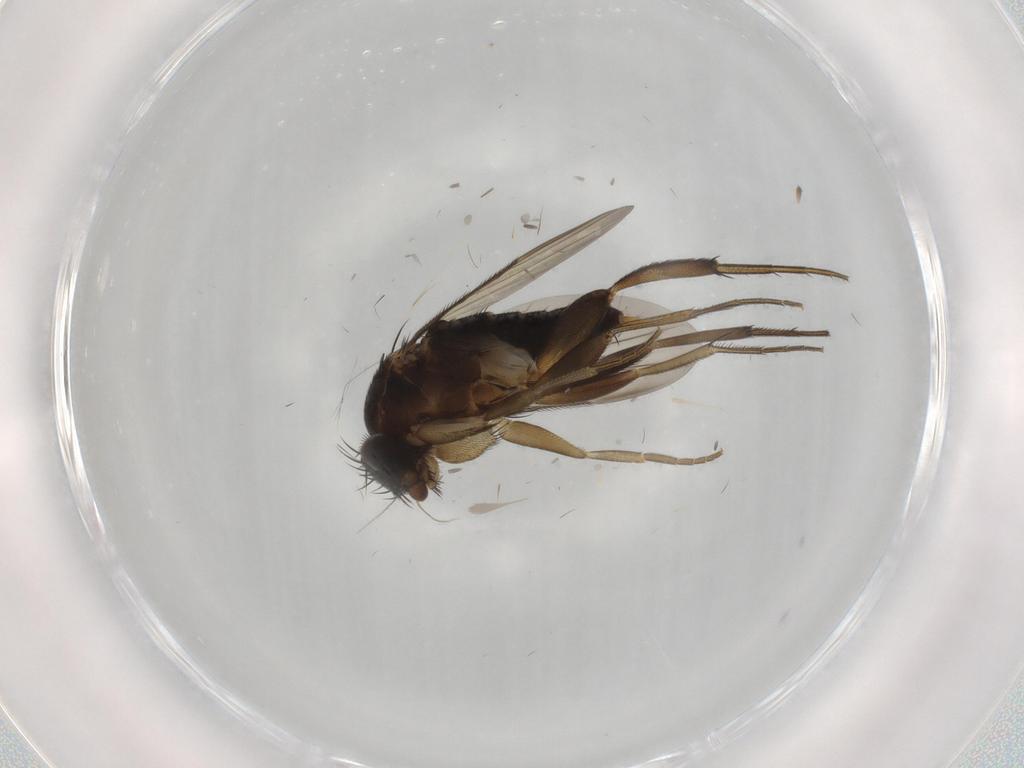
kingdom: Animalia
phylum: Arthropoda
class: Insecta
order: Diptera
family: Phoridae
